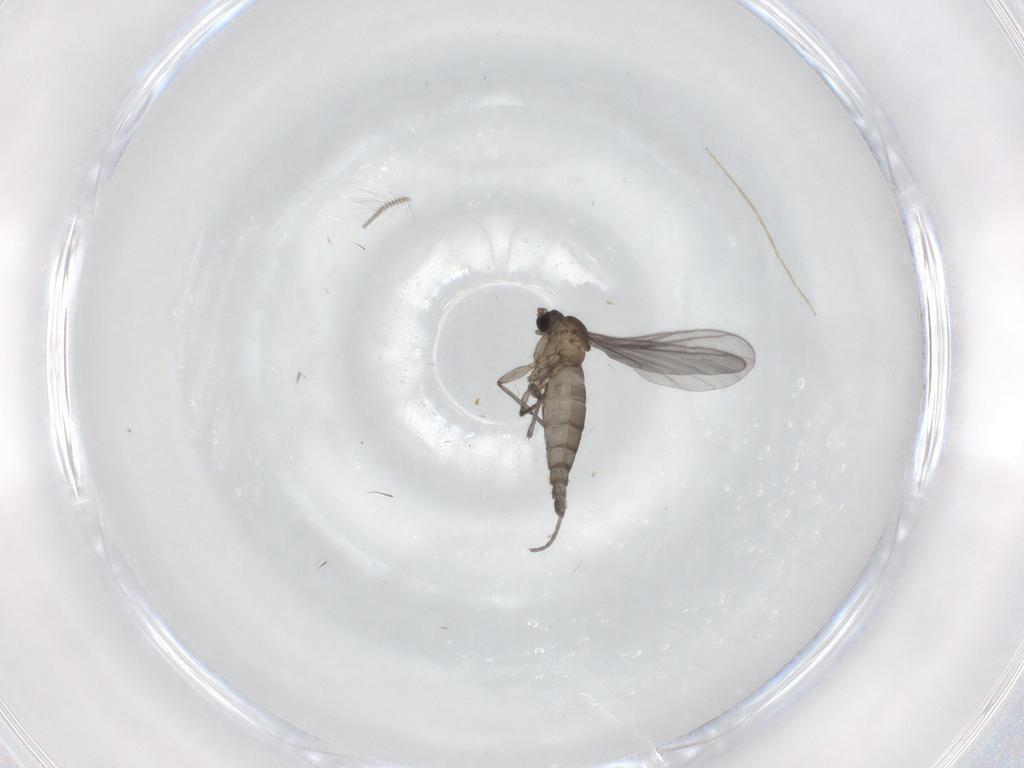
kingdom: Animalia
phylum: Arthropoda
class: Insecta
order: Diptera
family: Sciaridae
